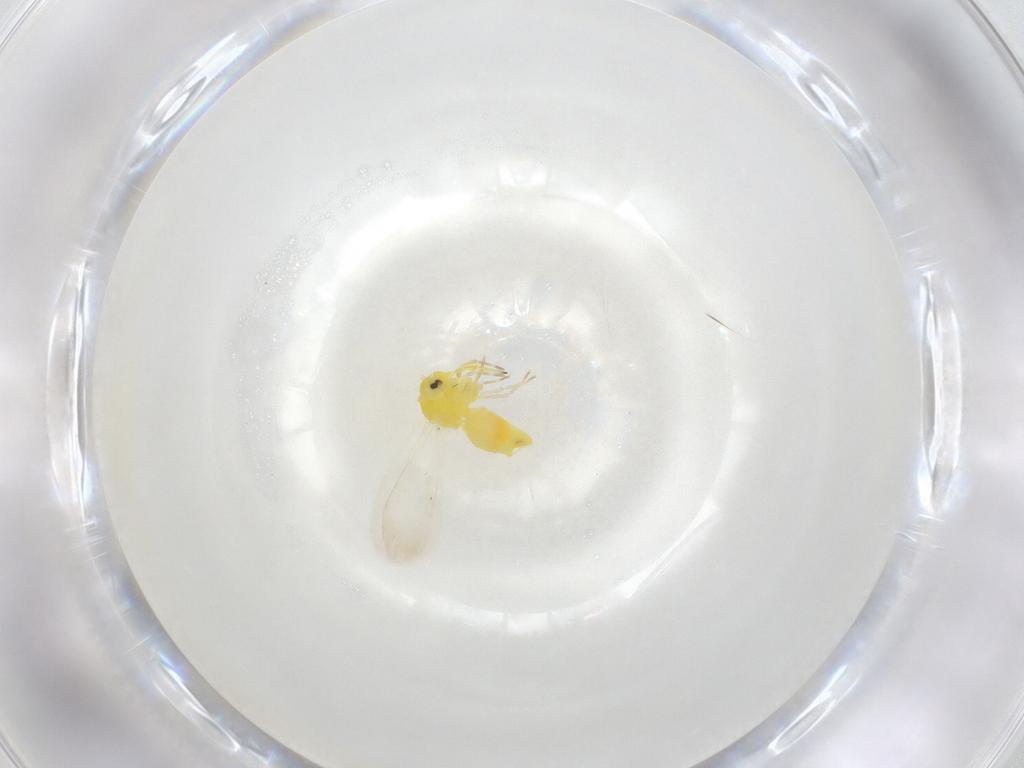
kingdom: Animalia
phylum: Arthropoda
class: Insecta
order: Hemiptera
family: Aleyrodidae
